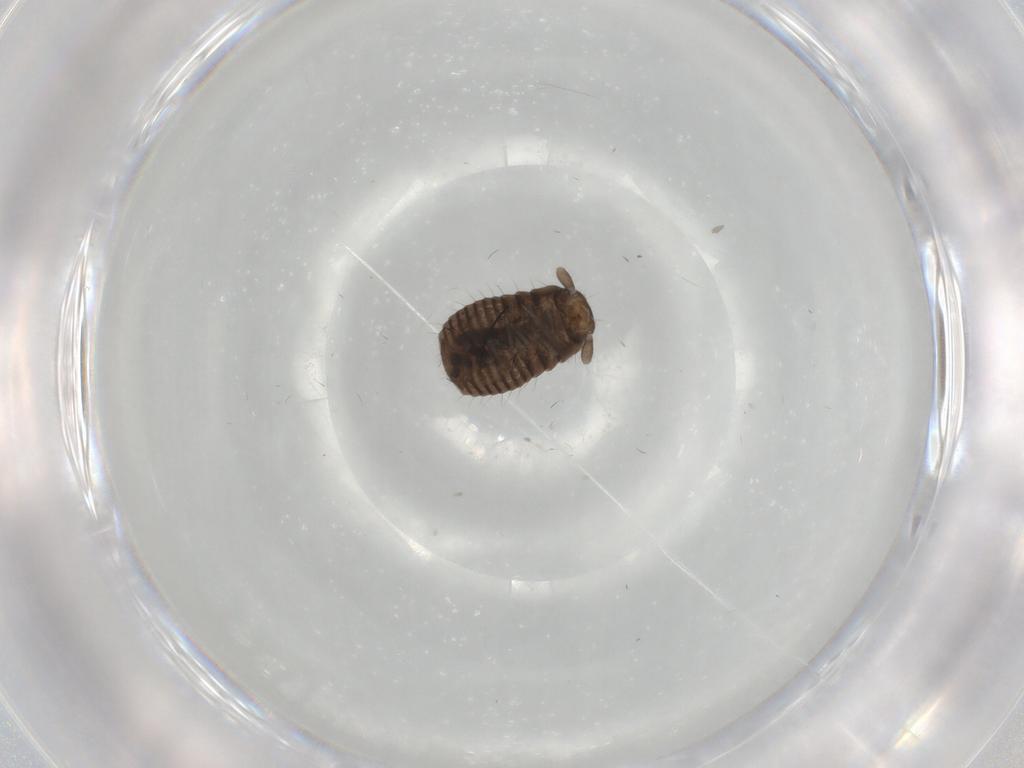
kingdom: Animalia
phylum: Arthropoda
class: Insecta
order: Coleoptera
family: Tenebrionidae
